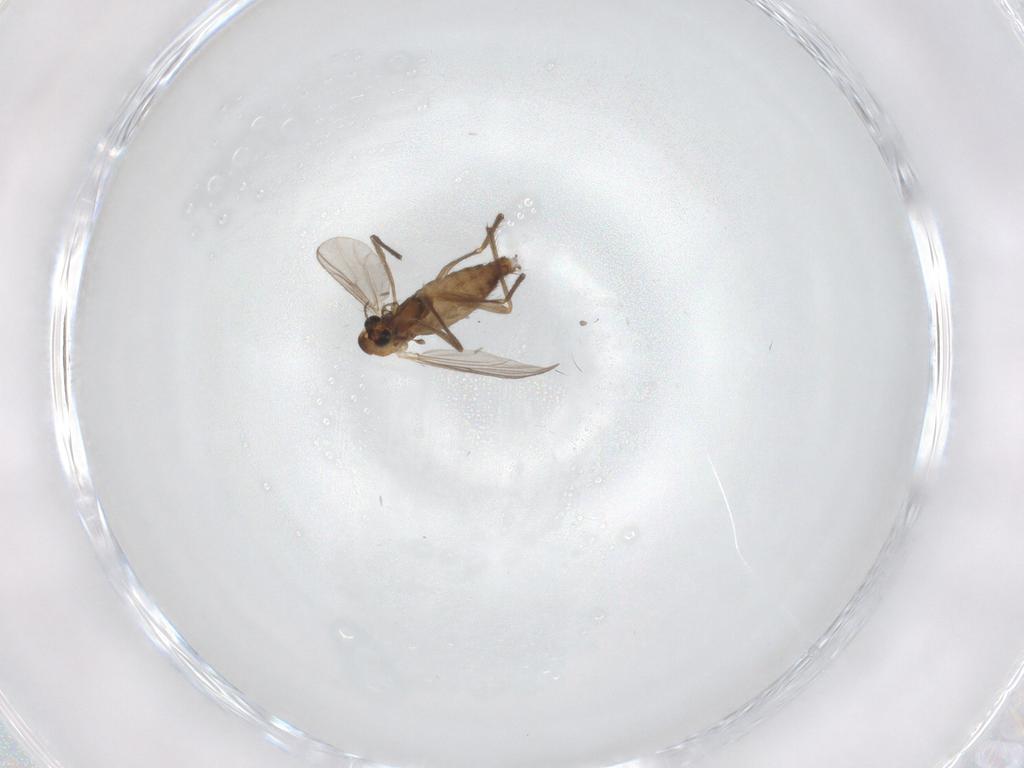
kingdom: Animalia
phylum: Arthropoda
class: Insecta
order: Diptera
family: Chironomidae
